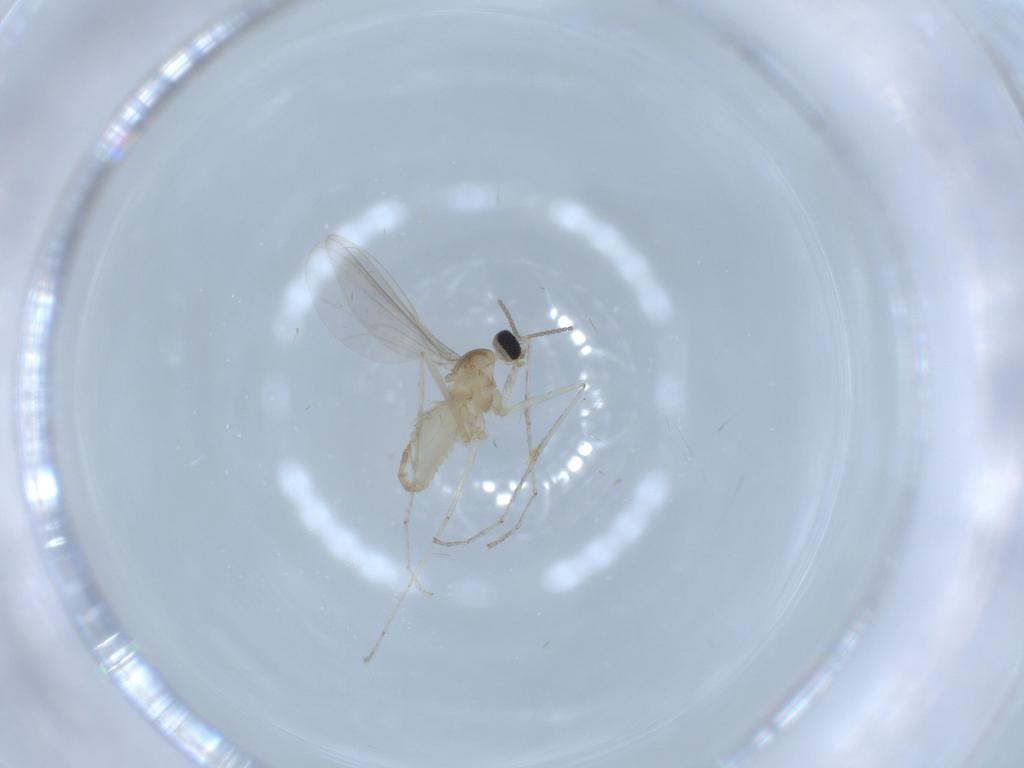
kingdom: Animalia
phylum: Arthropoda
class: Insecta
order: Diptera
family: Cecidomyiidae
